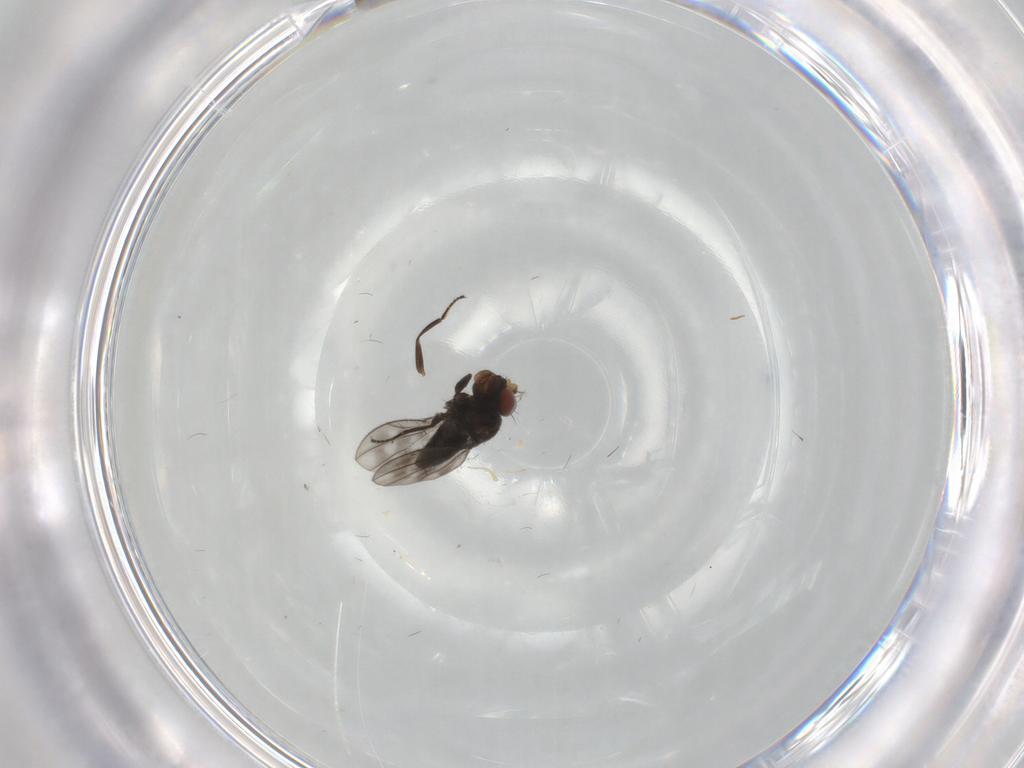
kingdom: Animalia
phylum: Arthropoda
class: Insecta
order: Diptera
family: Ephydridae
